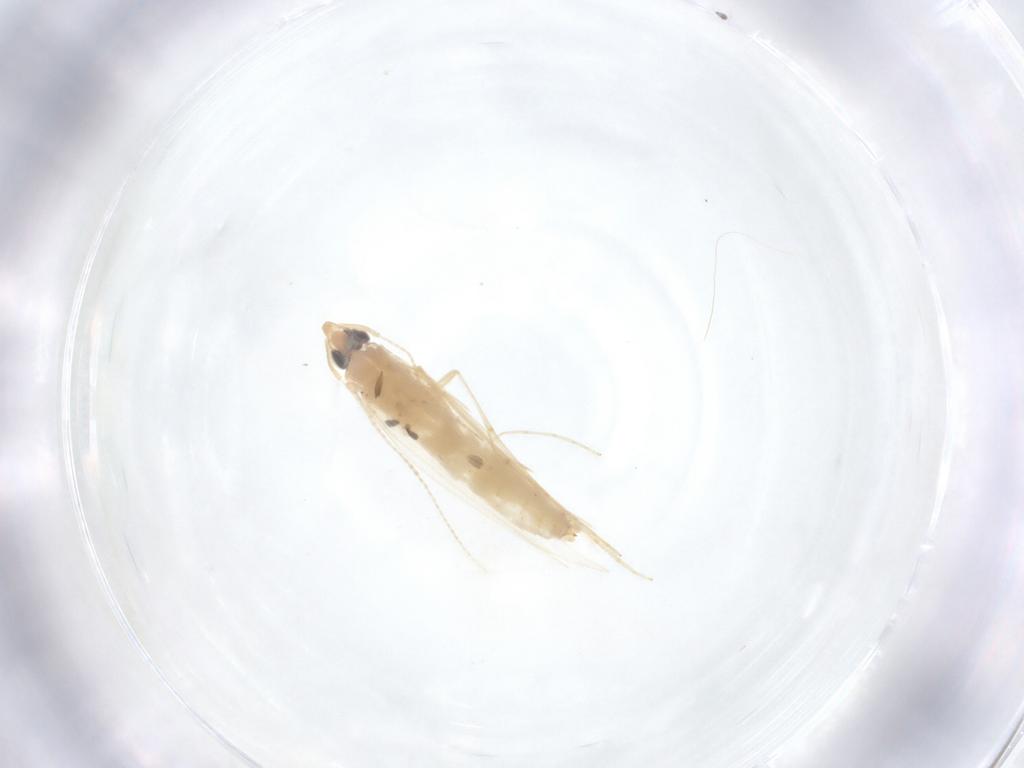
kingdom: Animalia
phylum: Arthropoda
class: Insecta
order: Lepidoptera
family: Tineidae
